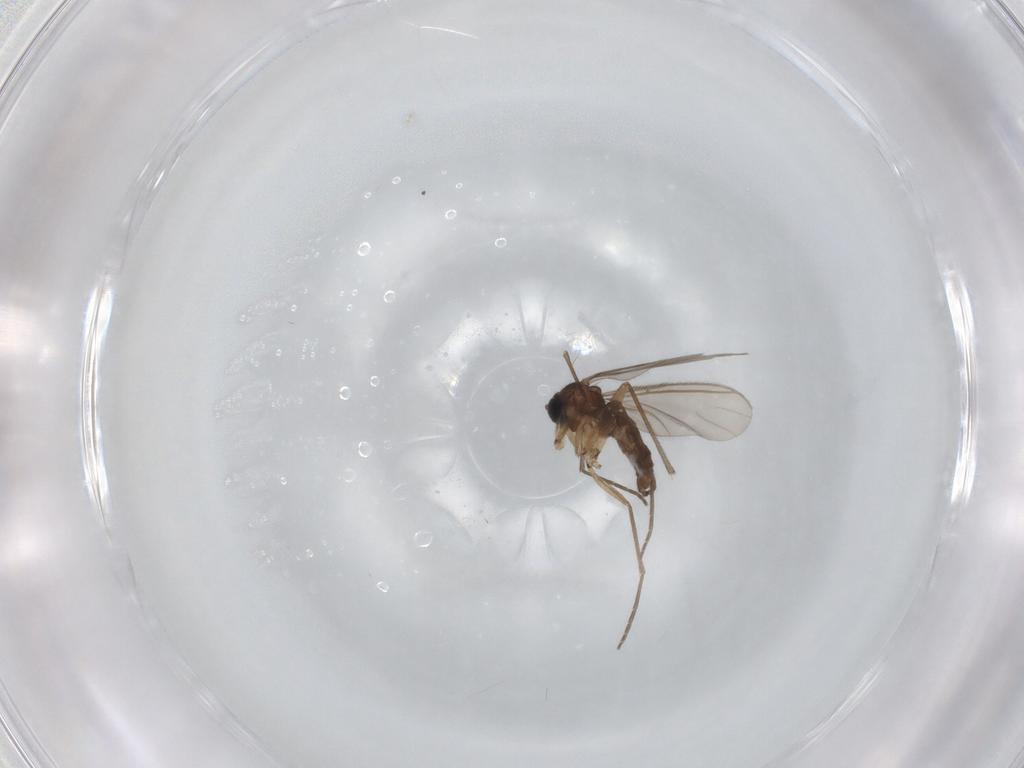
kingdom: Animalia
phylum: Arthropoda
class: Insecta
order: Diptera
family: Sciaridae
